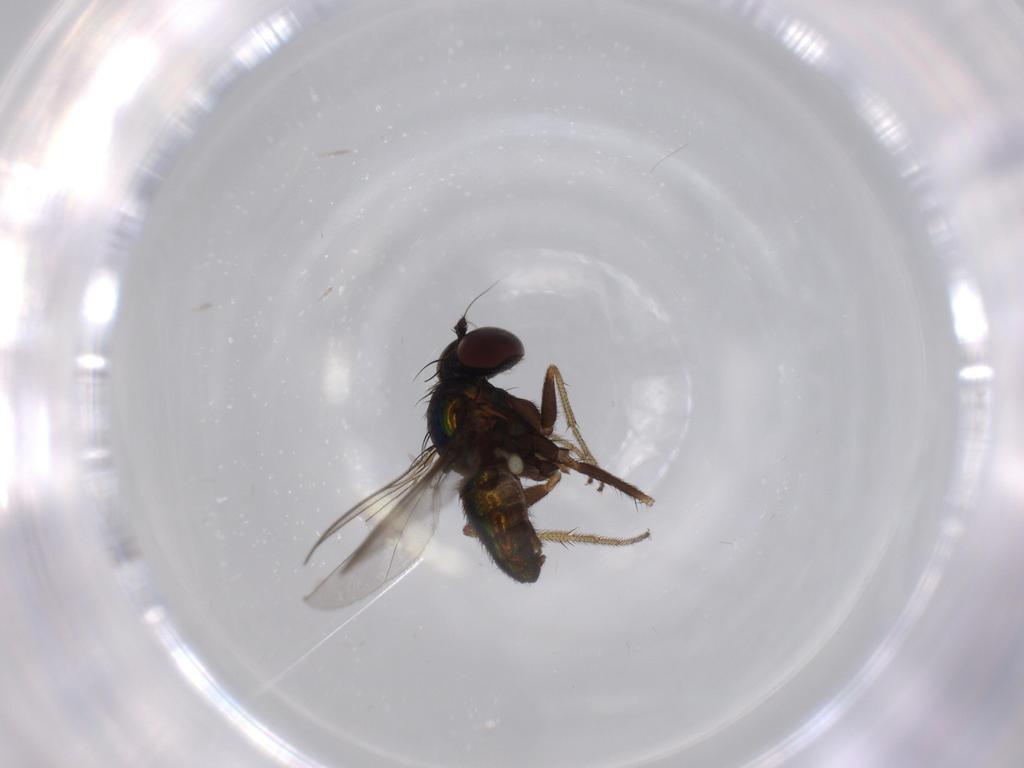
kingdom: Animalia
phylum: Arthropoda
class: Insecta
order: Diptera
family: Dolichopodidae
